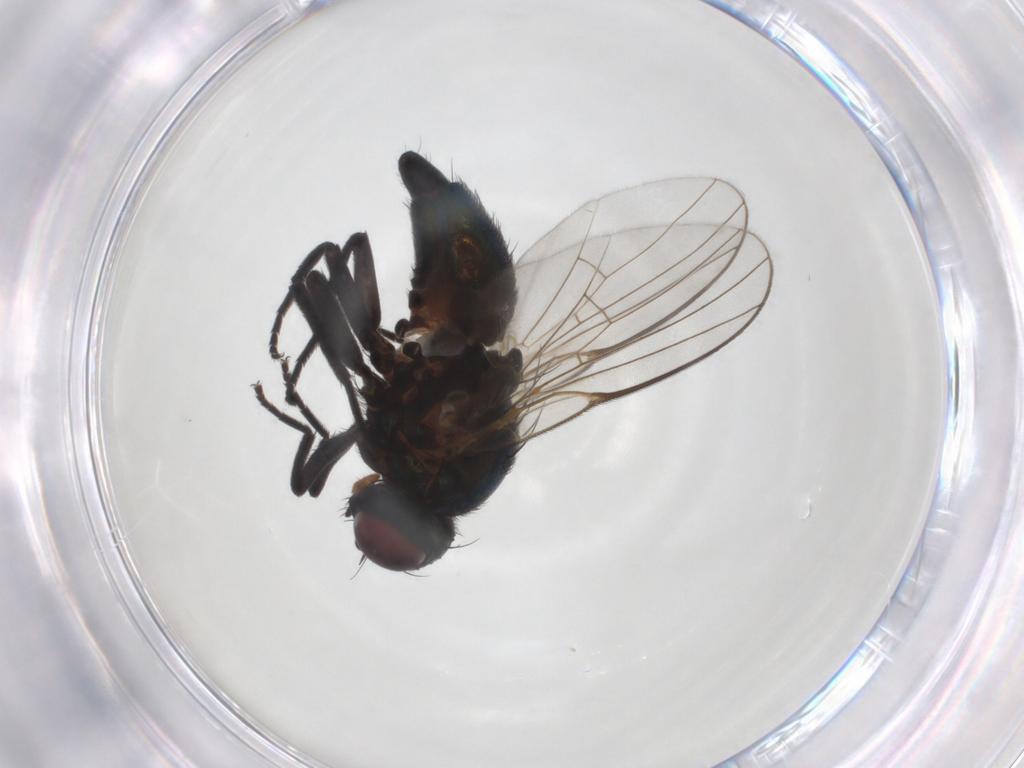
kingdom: Animalia
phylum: Arthropoda
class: Insecta
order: Diptera
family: Agromyzidae
